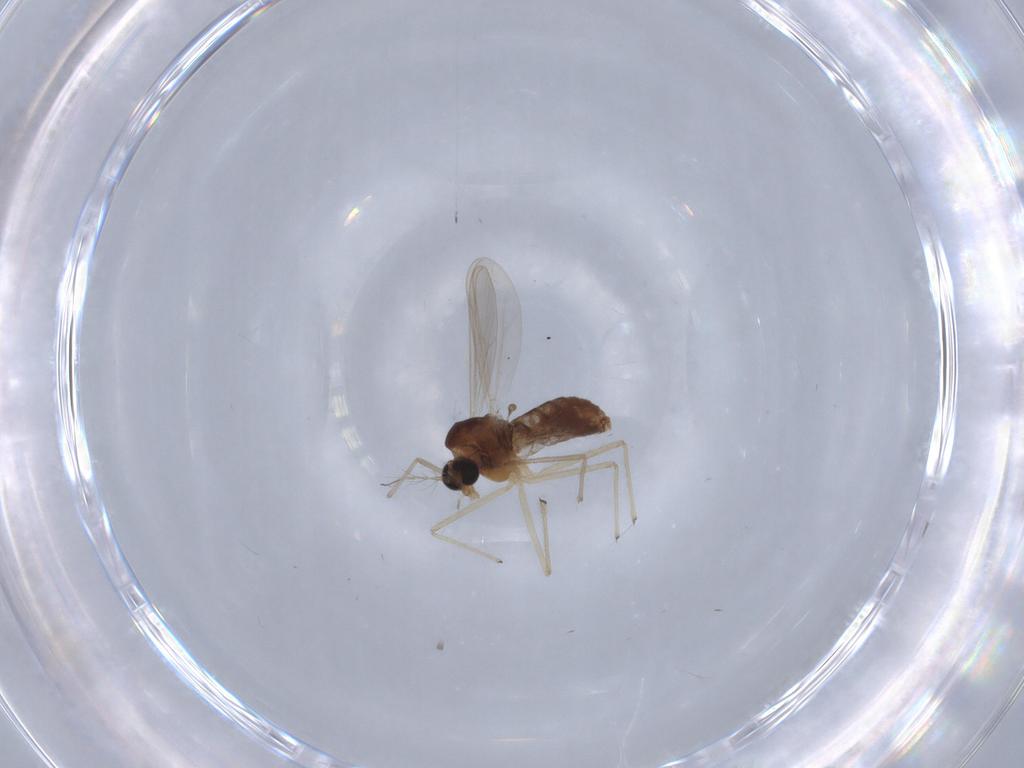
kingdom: Animalia
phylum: Arthropoda
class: Insecta
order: Diptera
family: Chironomidae
